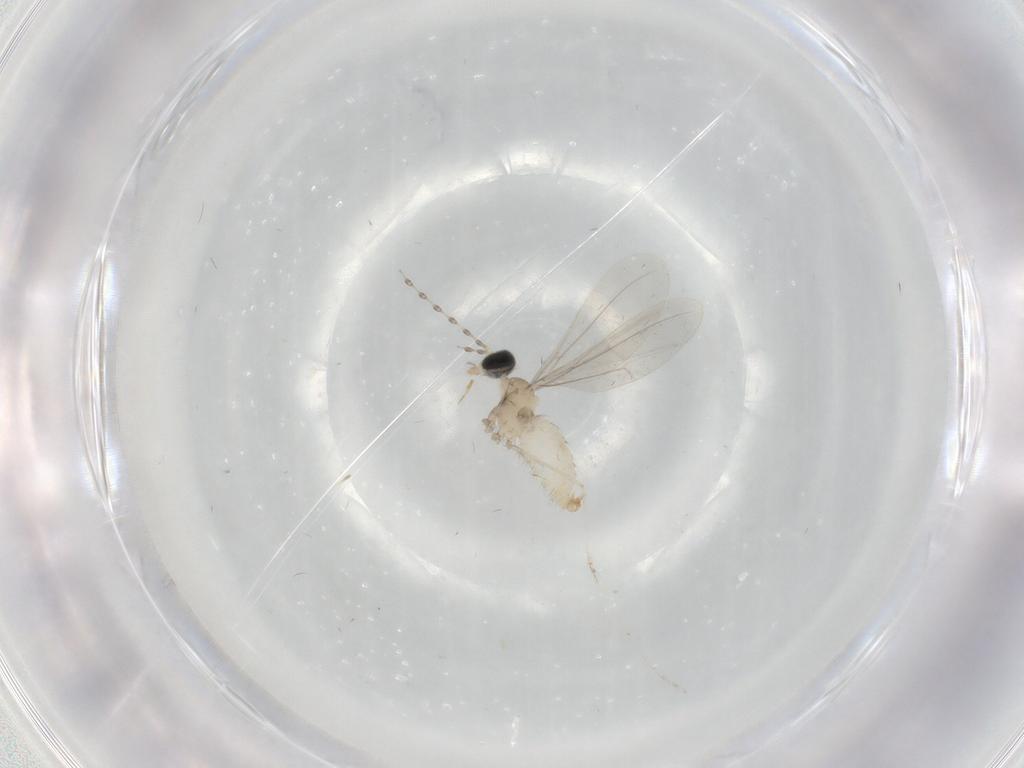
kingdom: Animalia
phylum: Arthropoda
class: Insecta
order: Diptera
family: Cecidomyiidae
